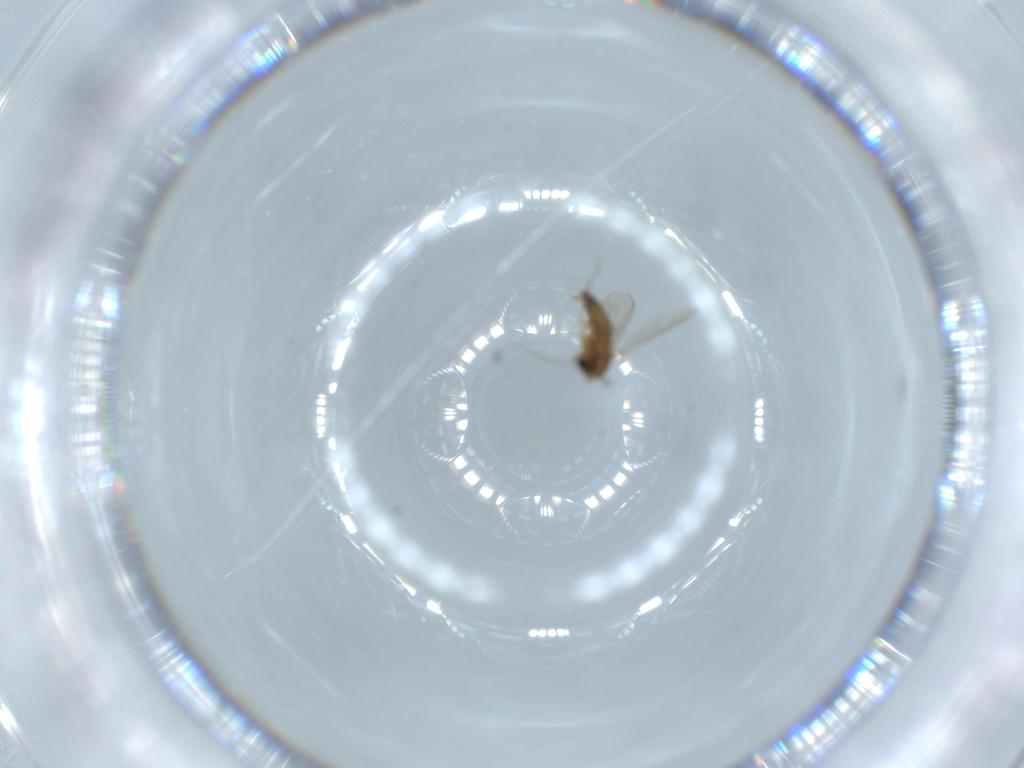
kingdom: Animalia
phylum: Arthropoda
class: Insecta
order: Diptera
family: Chironomidae
